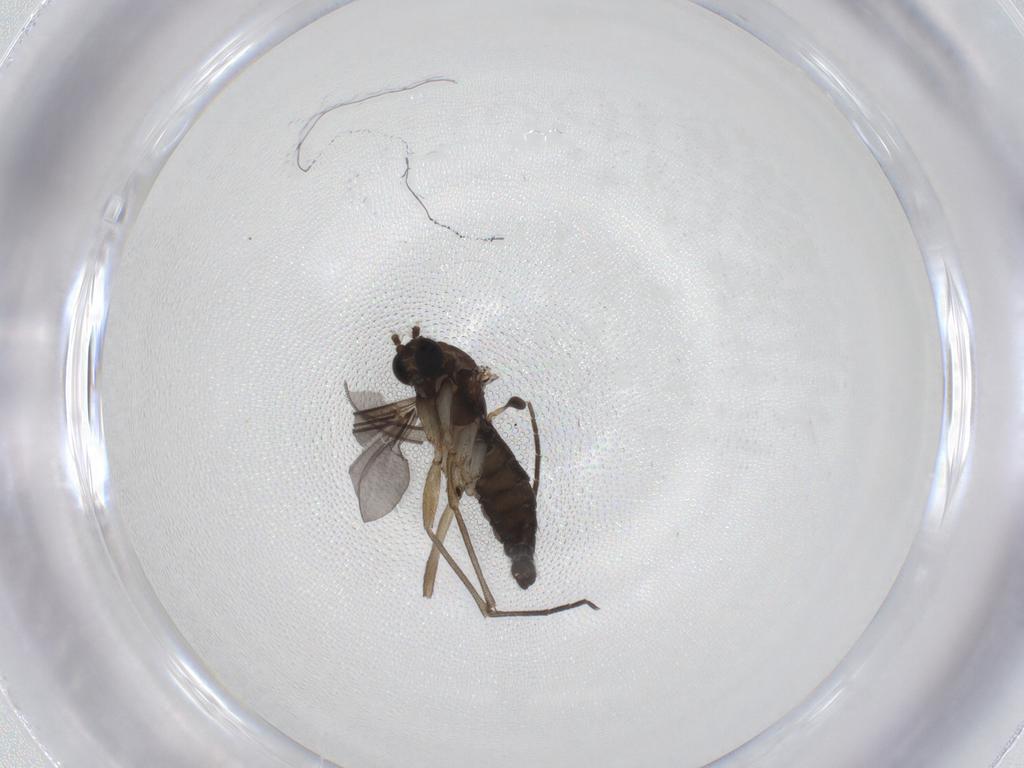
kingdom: Animalia
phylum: Arthropoda
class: Insecta
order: Diptera
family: Sciaridae
